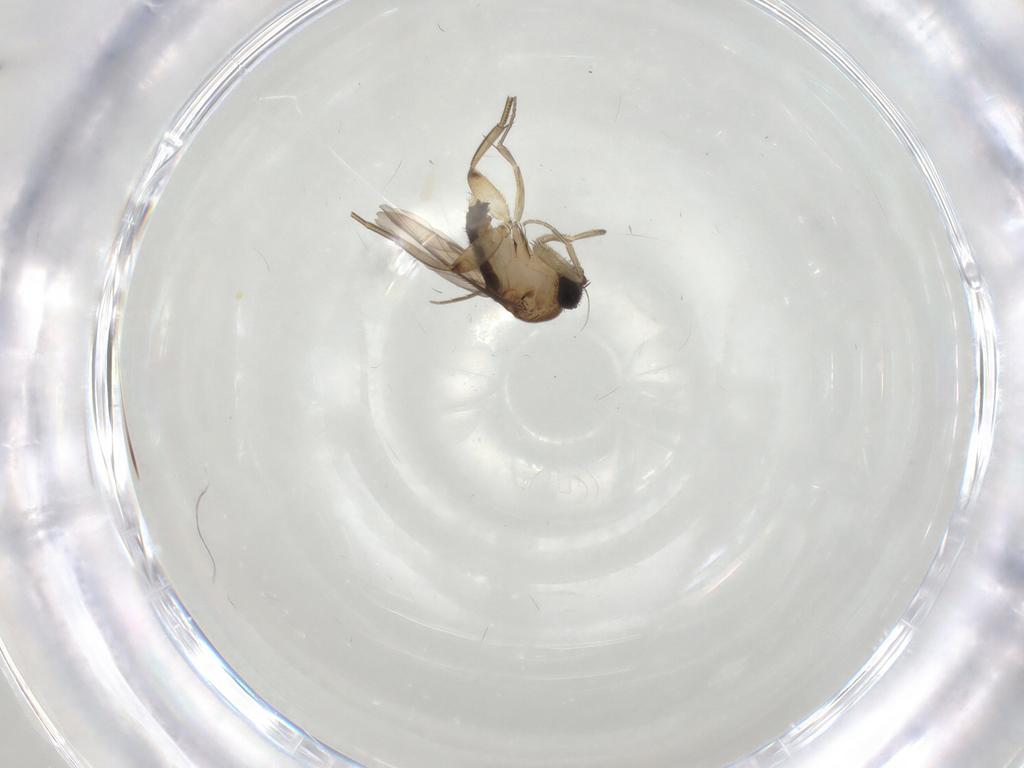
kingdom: Animalia
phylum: Arthropoda
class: Insecta
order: Diptera
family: Phoridae
